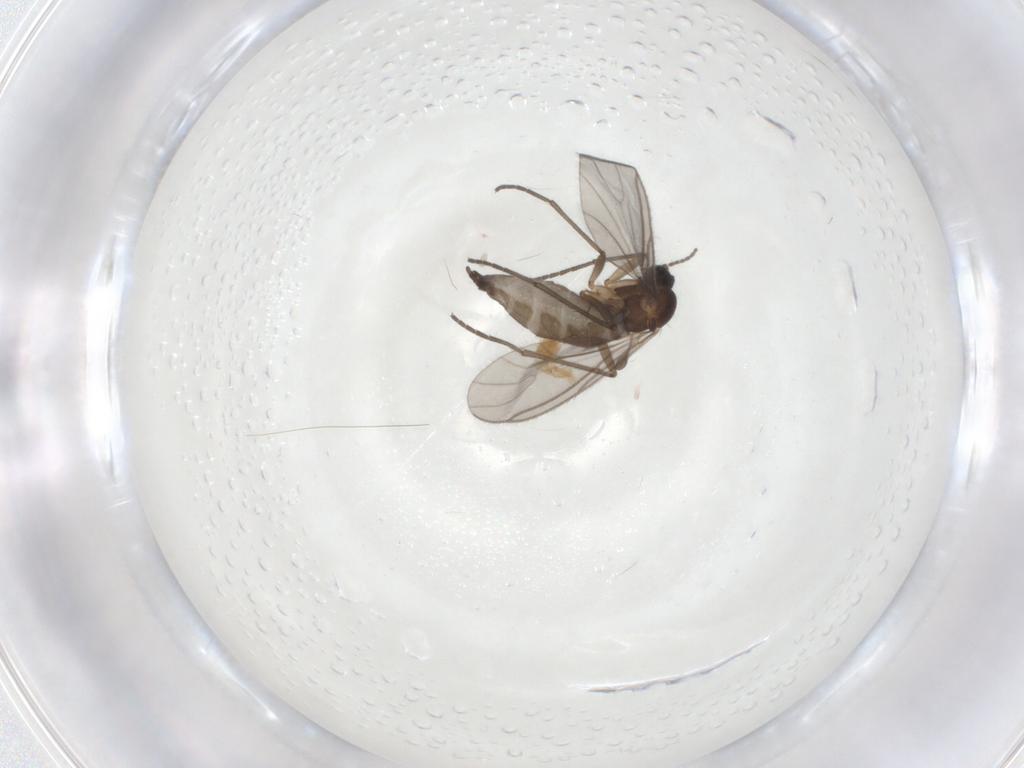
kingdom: Animalia
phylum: Arthropoda
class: Insecta
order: Diptera
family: Sciaridae
